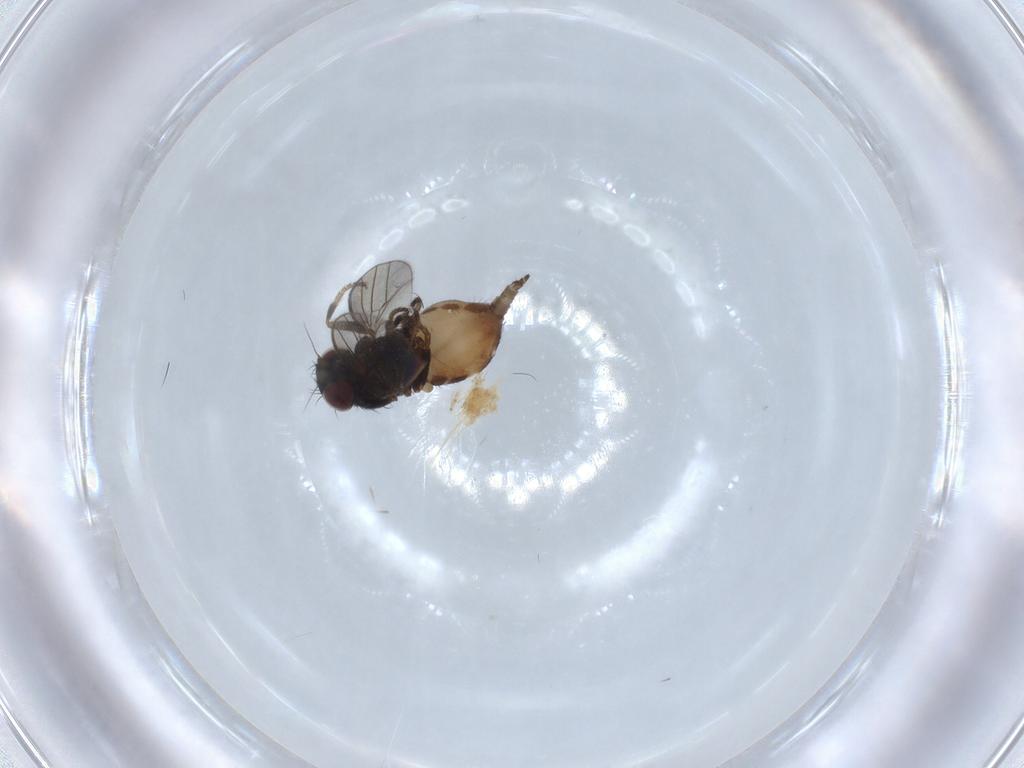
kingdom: Animalia
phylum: Arthropoda
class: Insecta
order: Diptera
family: Milichiidae
